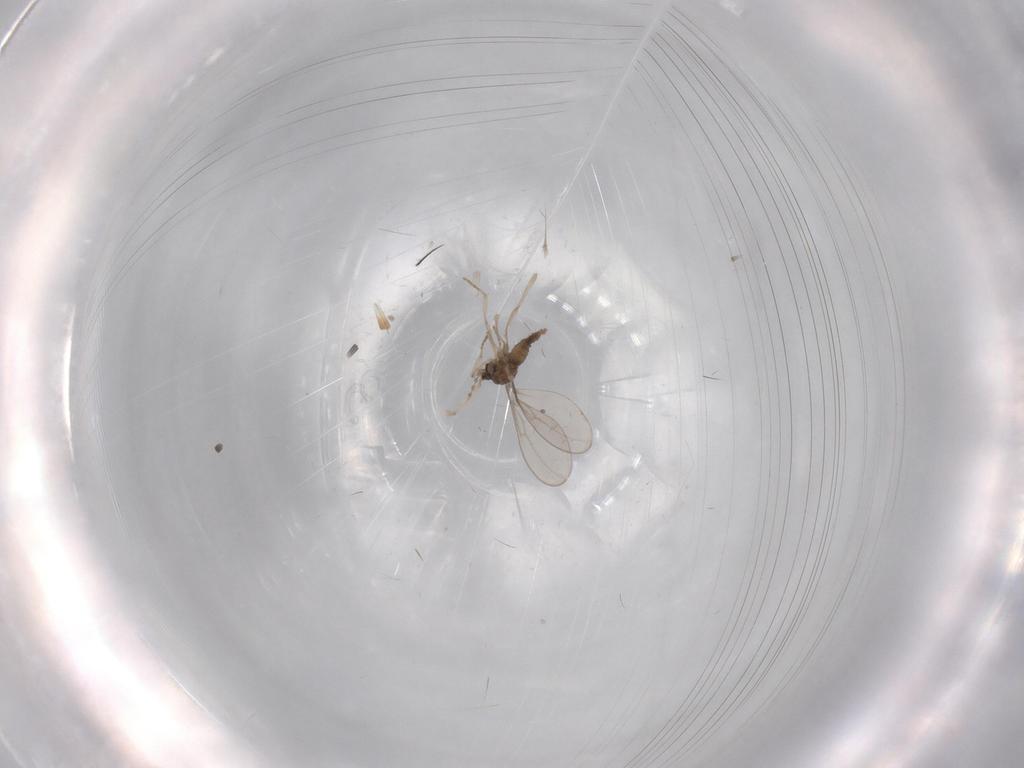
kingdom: Animalia
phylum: Arthropoda
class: Insecta
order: Diptera
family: Cecidomyiidae
